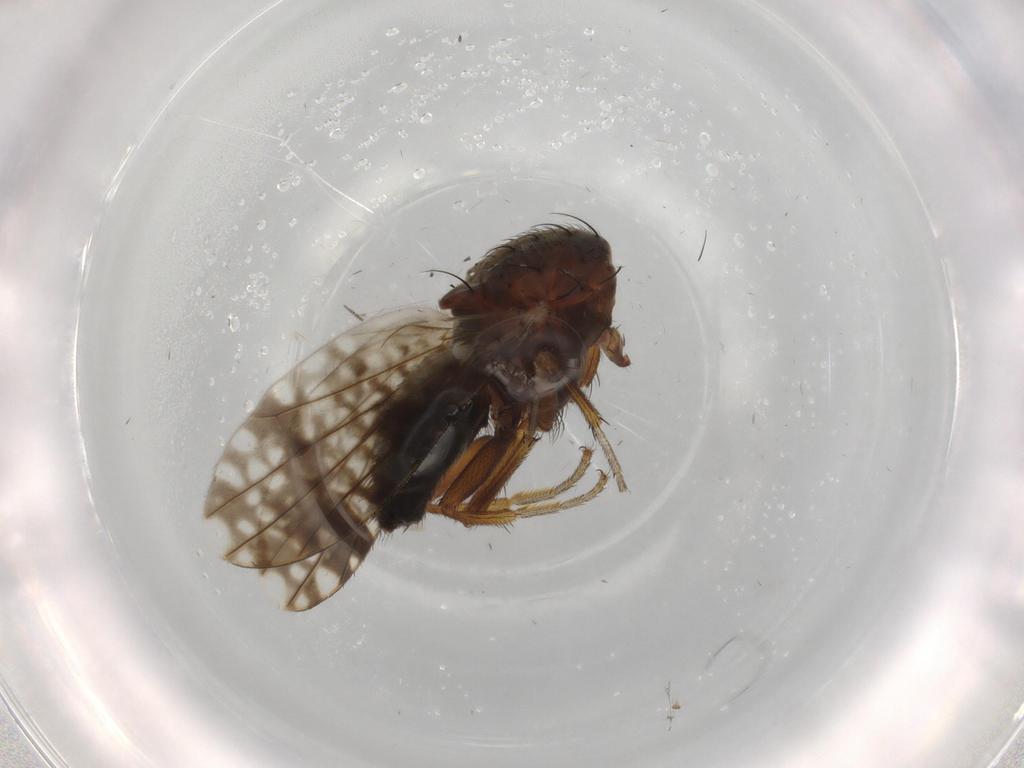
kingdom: Animalia
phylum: Arthropoda
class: Insecta
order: Diptera
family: Tephritidae
